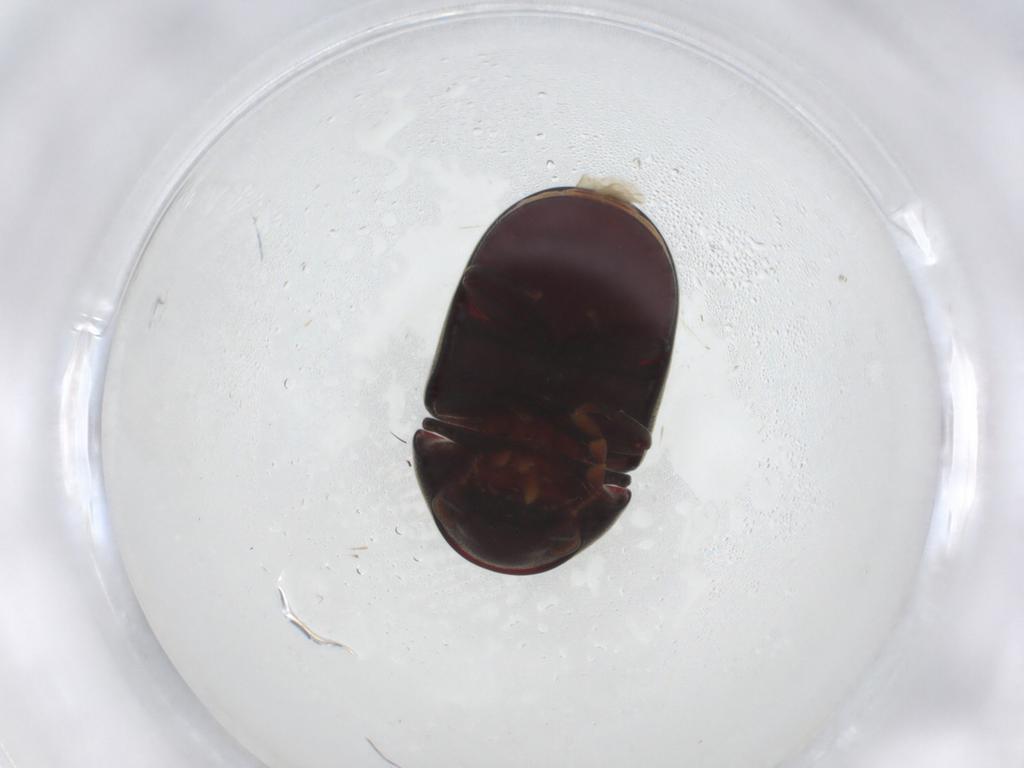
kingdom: Animalia
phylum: Arthropoda
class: Insecta
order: Coleoptera
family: Ptinidae
